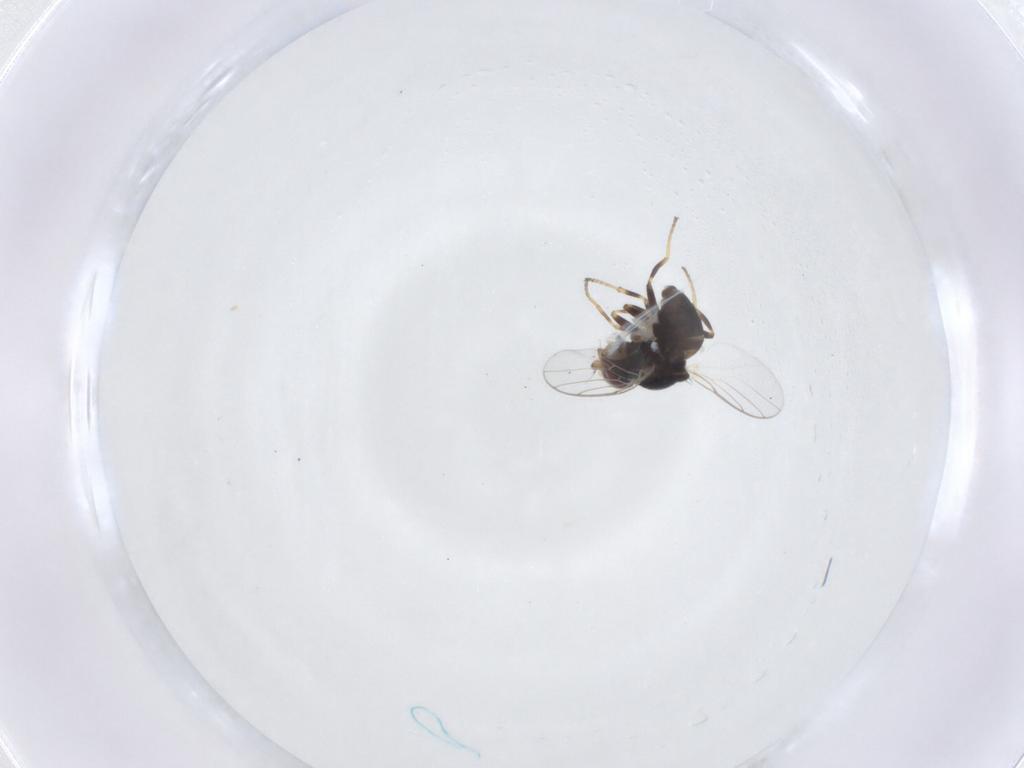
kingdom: Animalia
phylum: Arthropoda
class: Insecta
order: Diptera
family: Chloropidae
